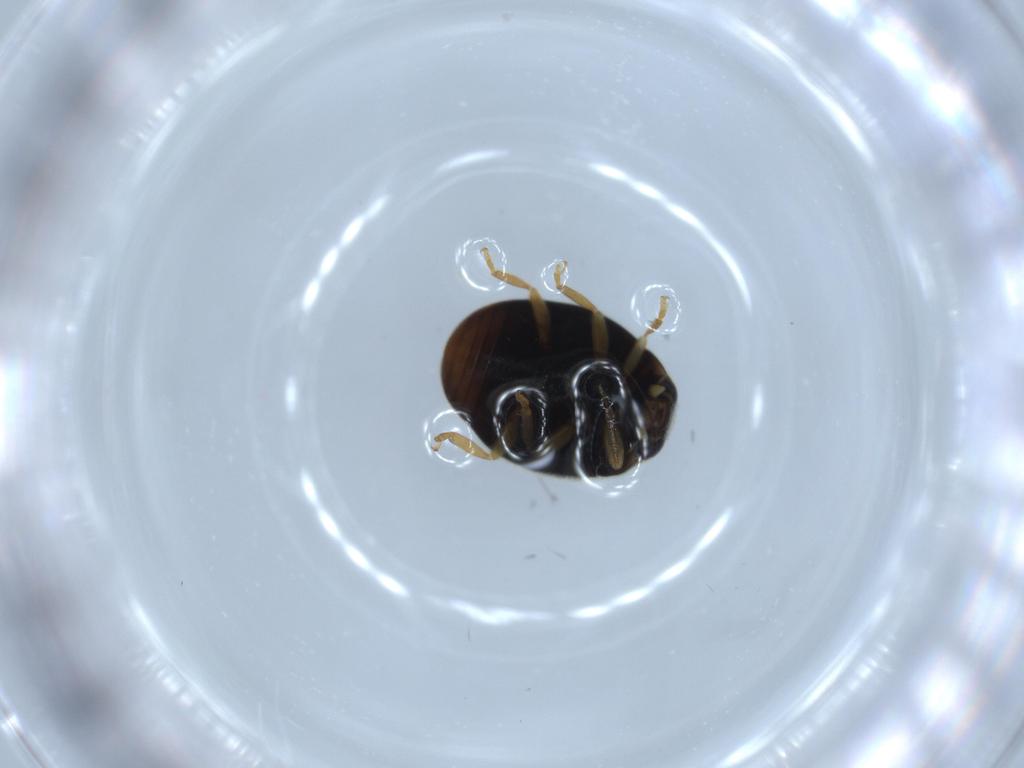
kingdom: Animalia
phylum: Arthropoda
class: Insecta
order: Coleoptera
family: Coccinellidae
